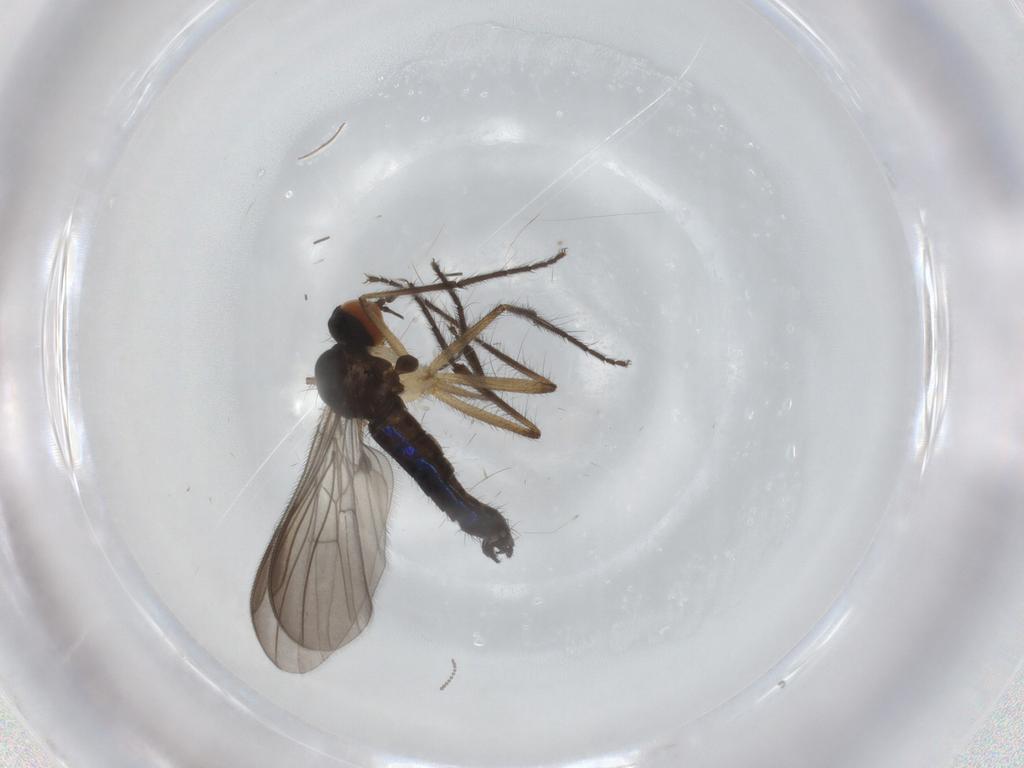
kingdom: Animalia
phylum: Arthropoda
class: Insecta
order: Diptera
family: Empididae
